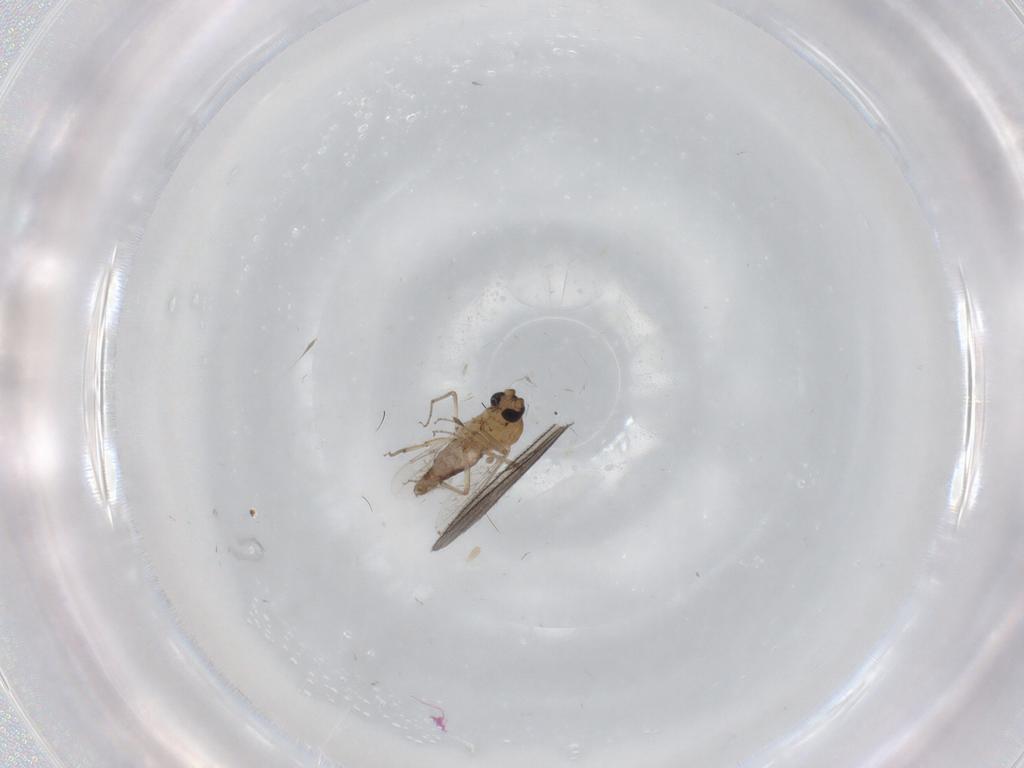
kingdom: Animalia
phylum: Arthropoda
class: Insecta
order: Diptera
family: Sciaridae
